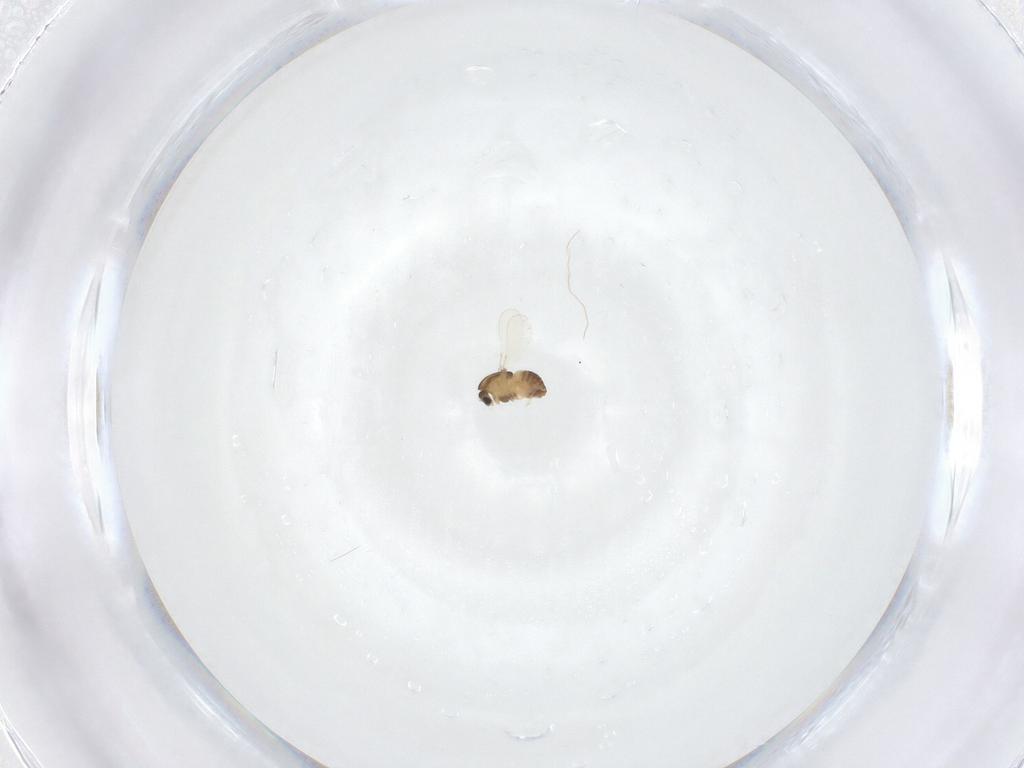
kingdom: Animalia
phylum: Arthropoda
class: Insecta
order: Diptera
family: Chironomidae
